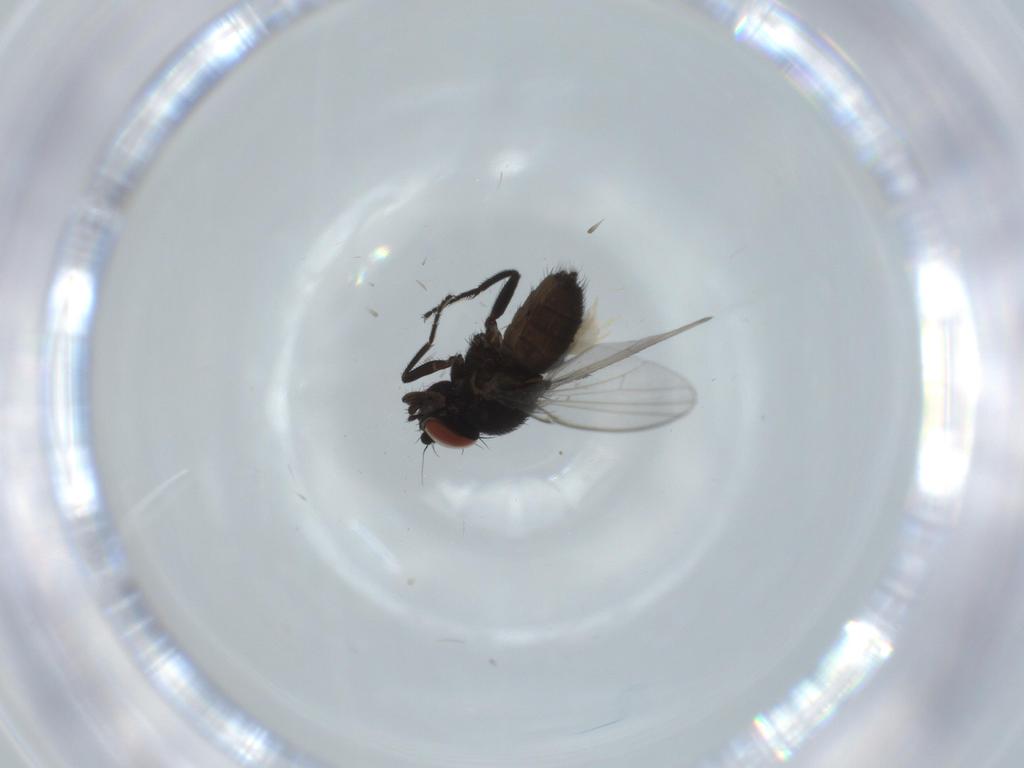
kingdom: Animalia
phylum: Arthropoda
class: Insecta
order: Diptera
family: Milichiidae
